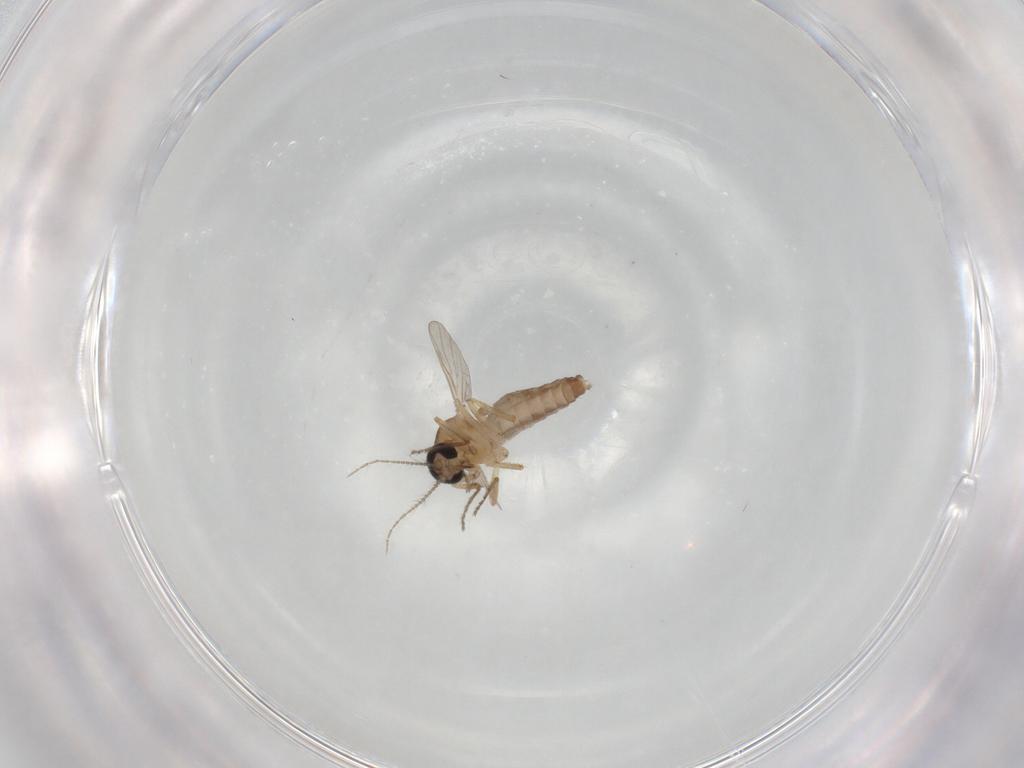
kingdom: Animalia
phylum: Arthropoda
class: Insecta
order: Diptera
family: Ceratopogonidae
